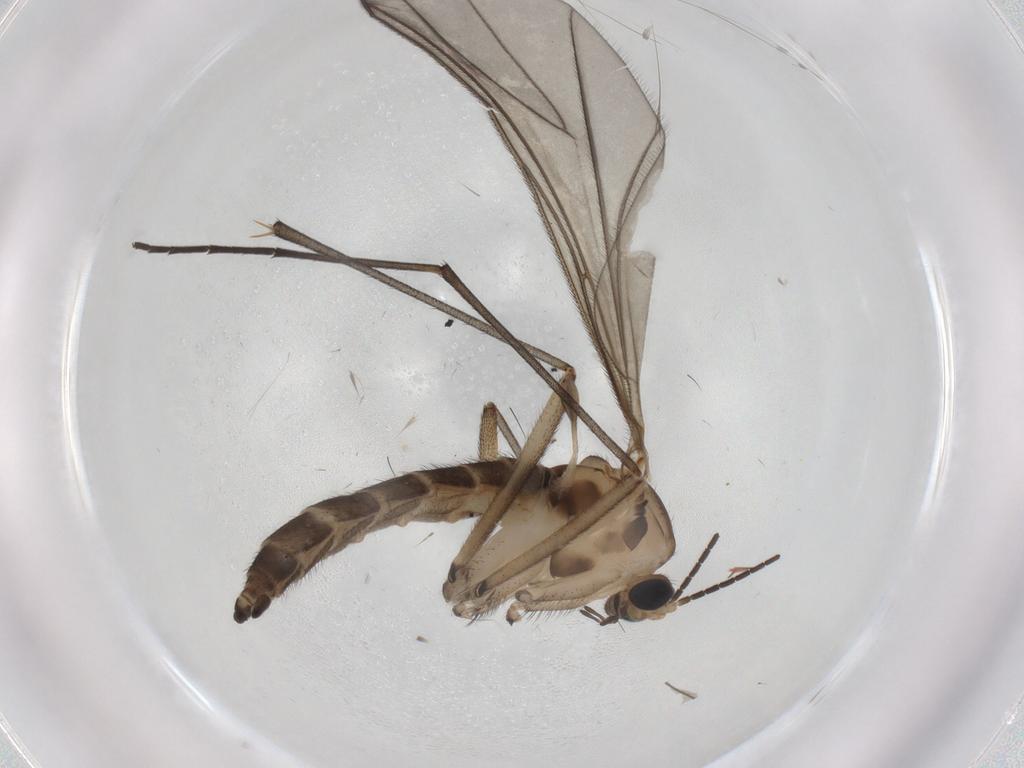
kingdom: Animalia
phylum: Arthropoda
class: Insecta
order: Diptera
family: Sciaridae
